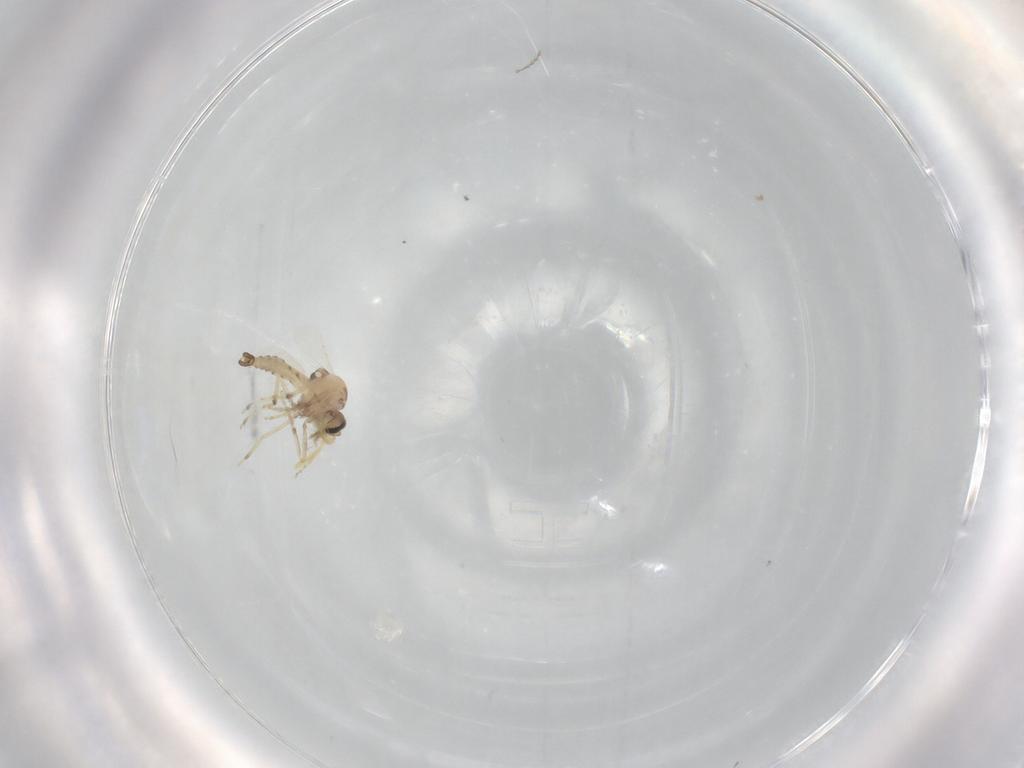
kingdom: Animalia
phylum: Arthropoda
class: Insecta
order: Diptera
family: Ceratopogonidae
